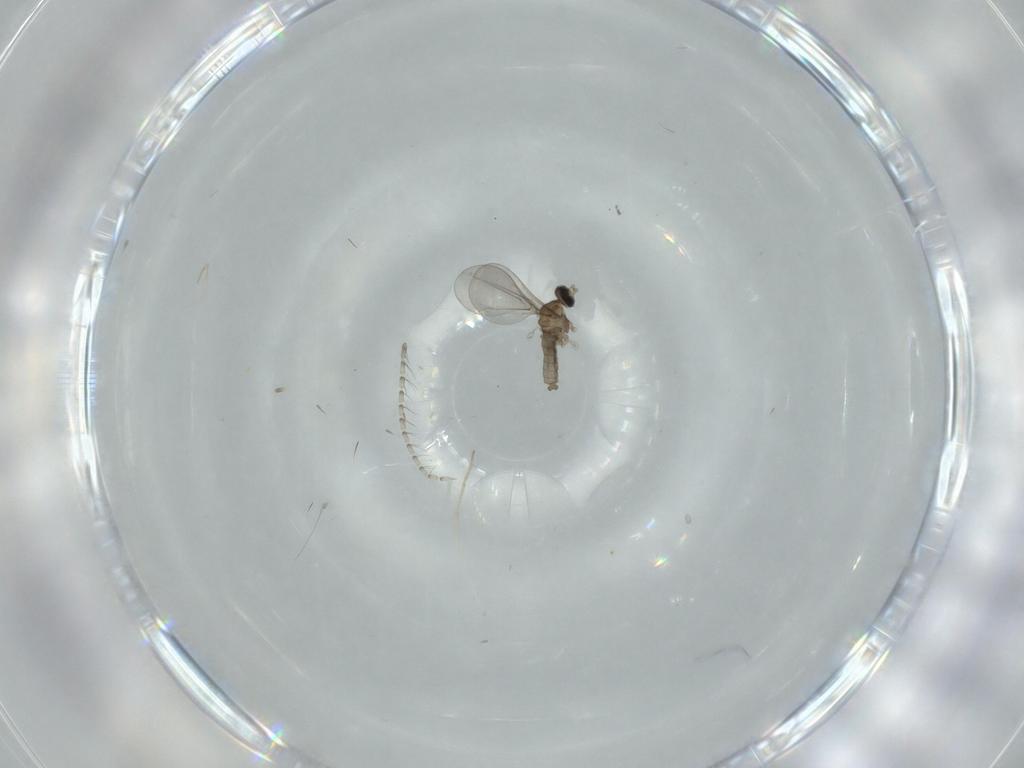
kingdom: Animalia
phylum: Arthropoda
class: Insecta
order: Diptera
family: Cecidomyiidae
